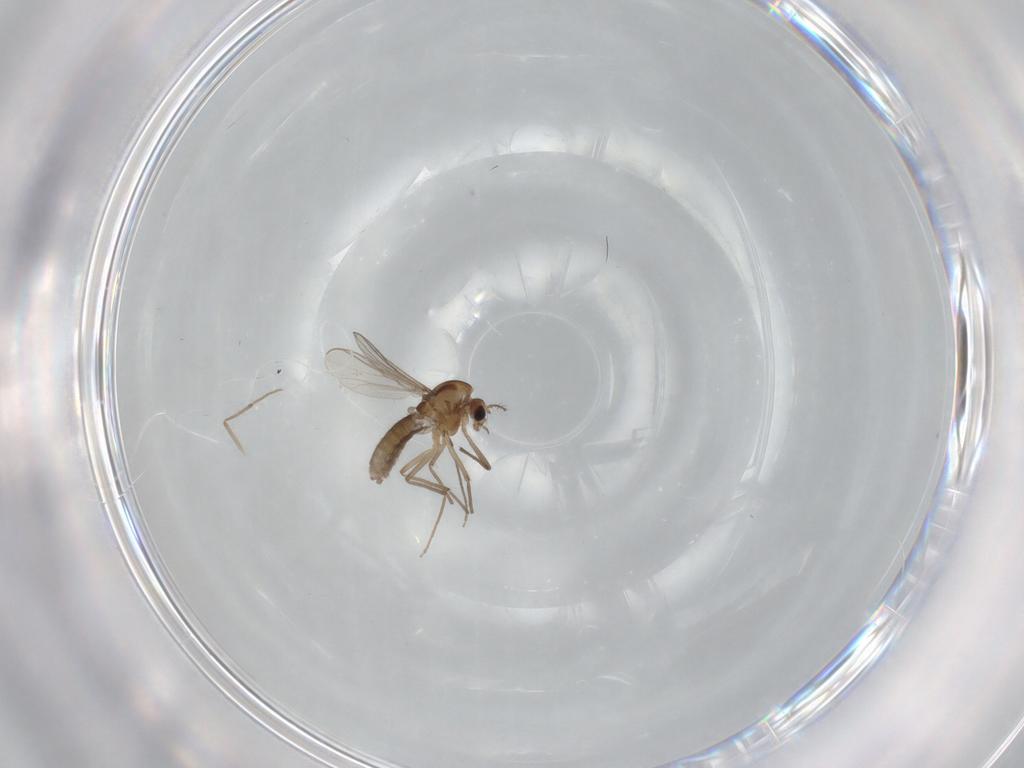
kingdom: Animalia
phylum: Arthropoda
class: Insecta
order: Diptera
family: Chironomidae
